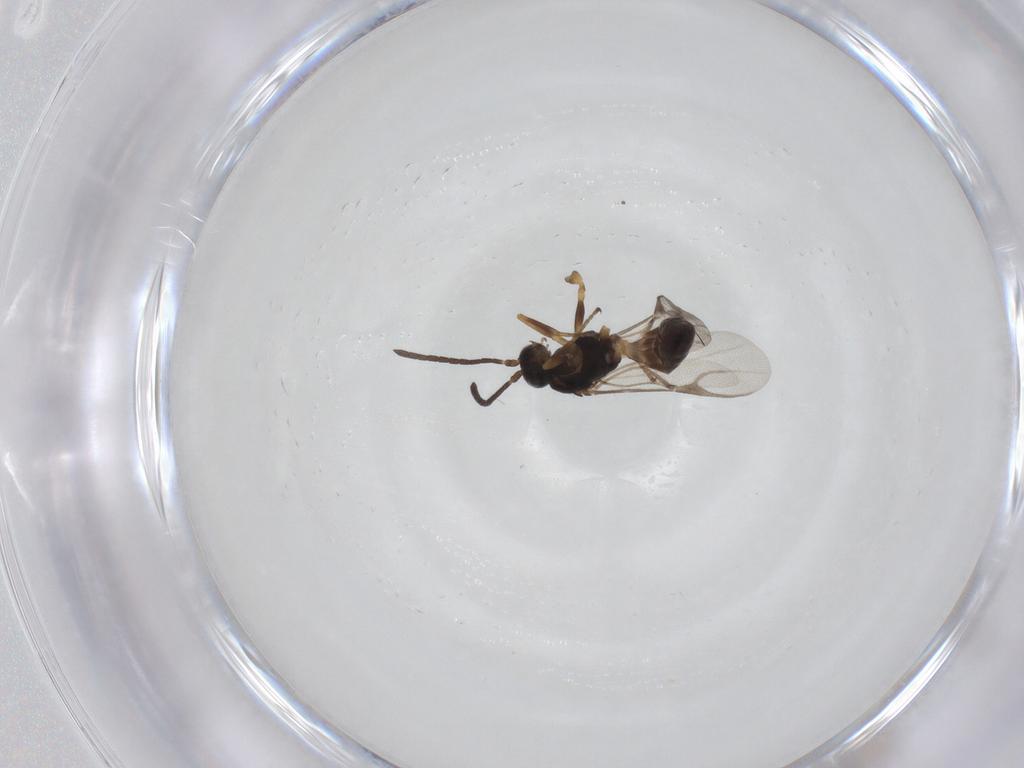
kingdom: Animalia
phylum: Arthropoda
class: Insecta
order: Hymenoptera
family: Braconidae
